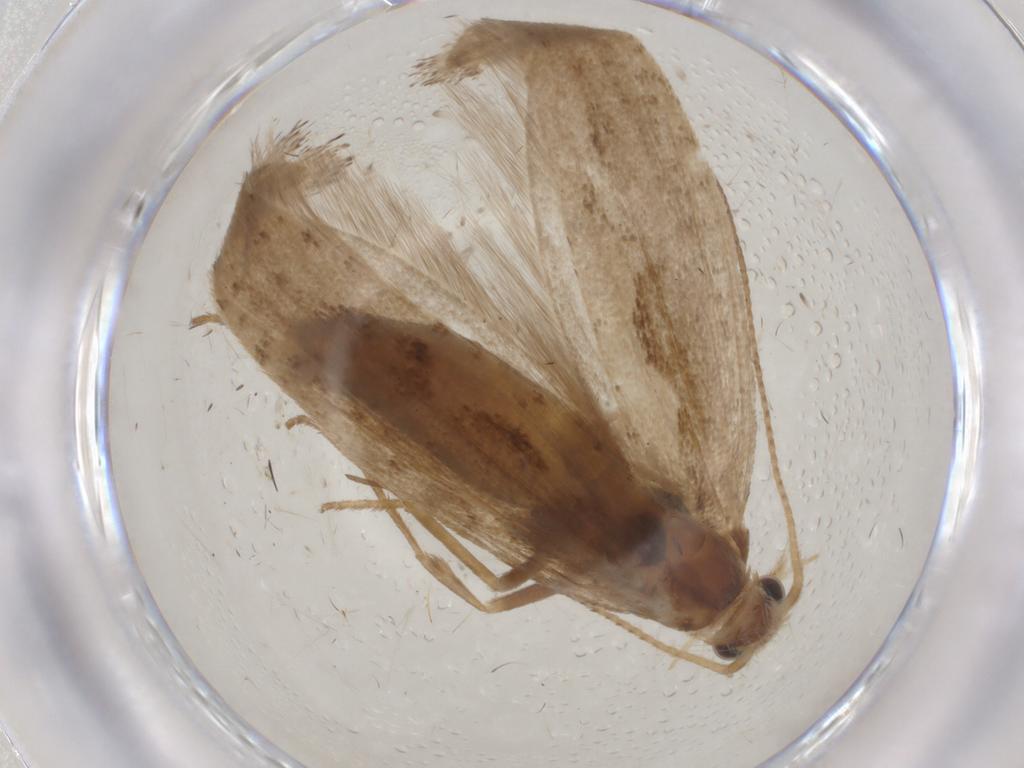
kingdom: Animalia
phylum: Arthropoda
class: Insecta
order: Lepidoptera
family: Plutellidae
